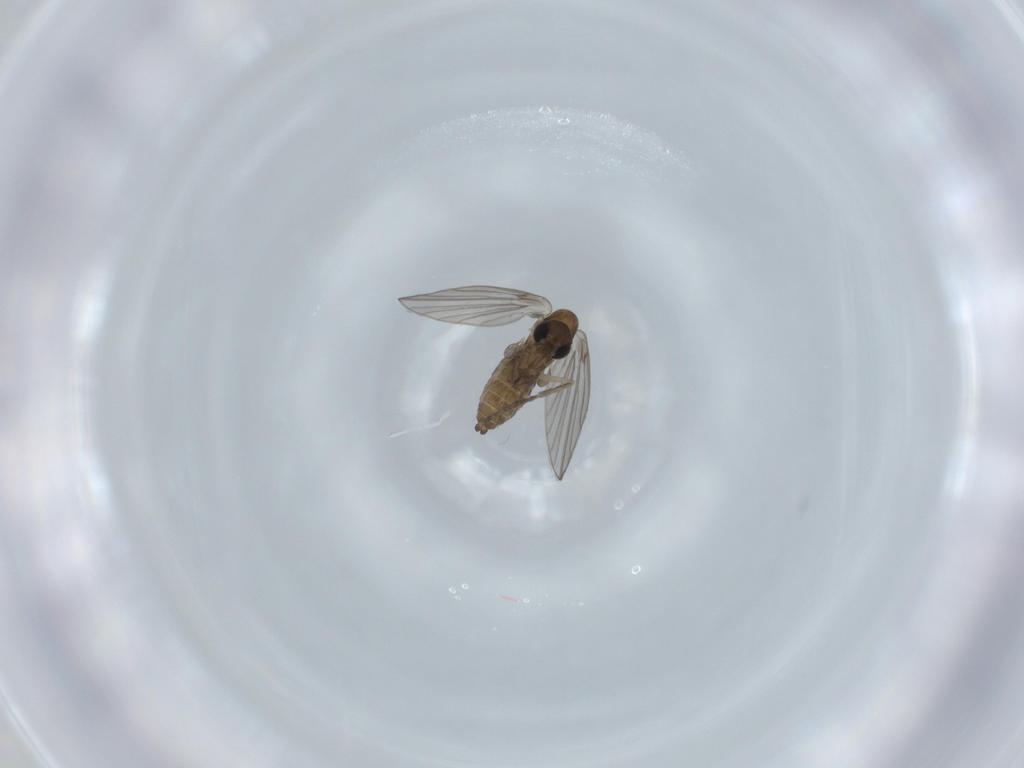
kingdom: Animalia
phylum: Arthropoda
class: Insecta
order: Diptera
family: Psychodidae
